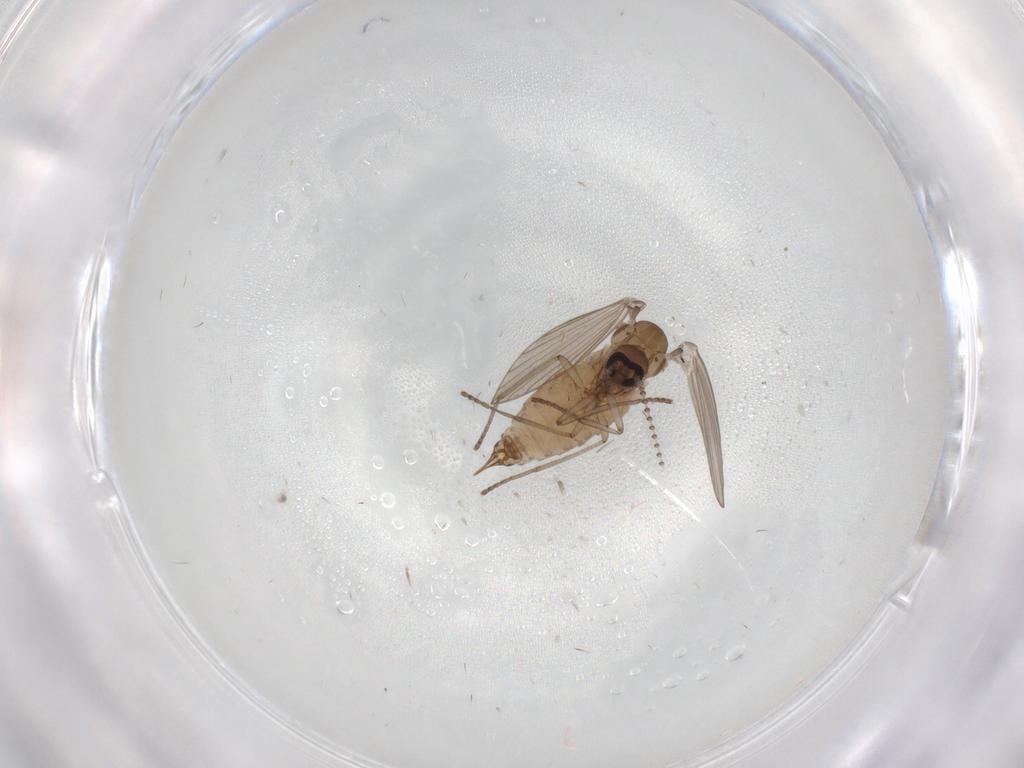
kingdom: Animalia
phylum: Arthropoda
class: Insecta
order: Diptera
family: Psychodidae
